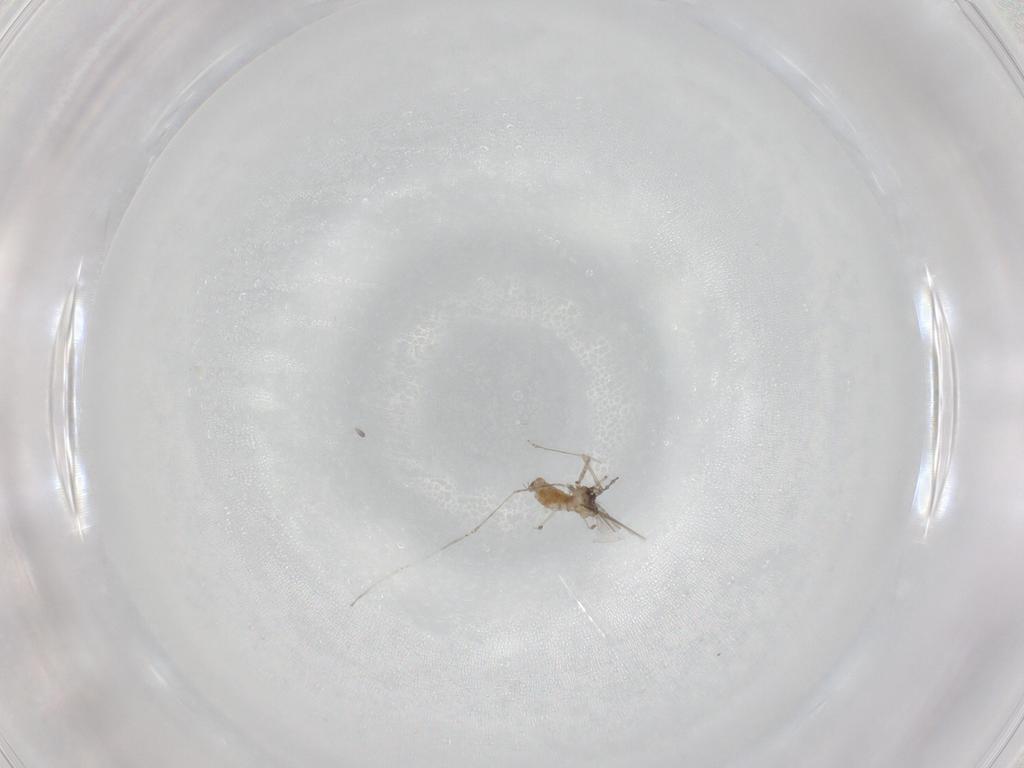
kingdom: Animalia
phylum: Arthropoda
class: Insecta
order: Diptera
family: Cecidomyiidae
